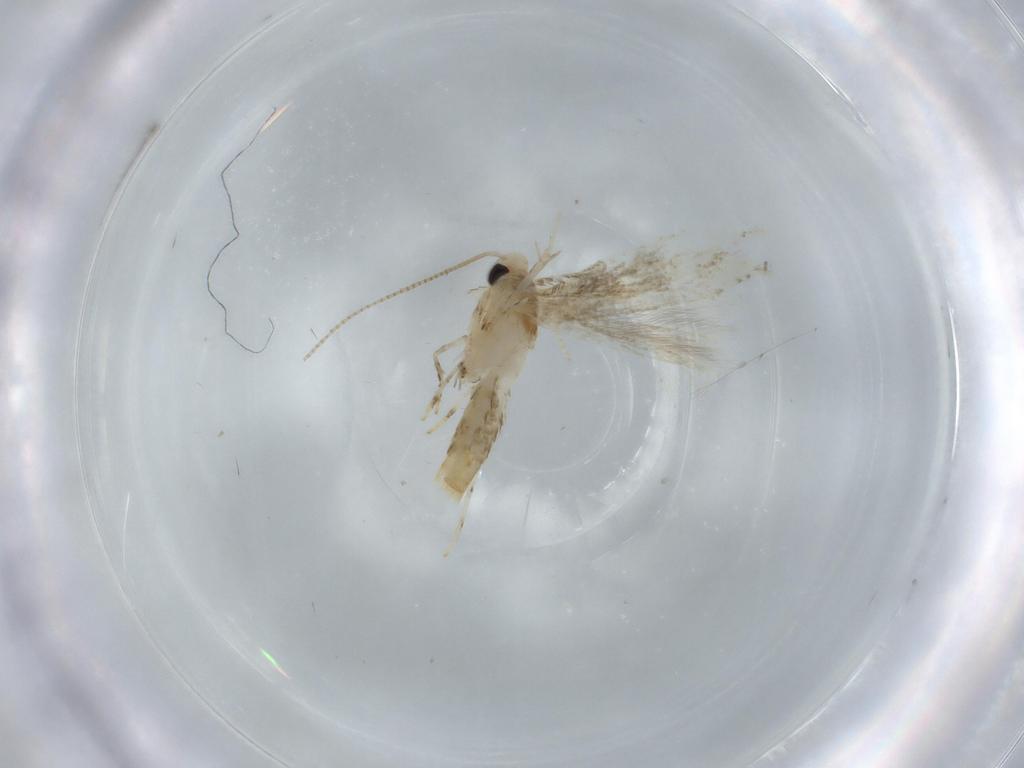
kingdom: Animalia
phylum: Arthropoda
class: Insecta
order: Lepidoptera
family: Gracillariidae
